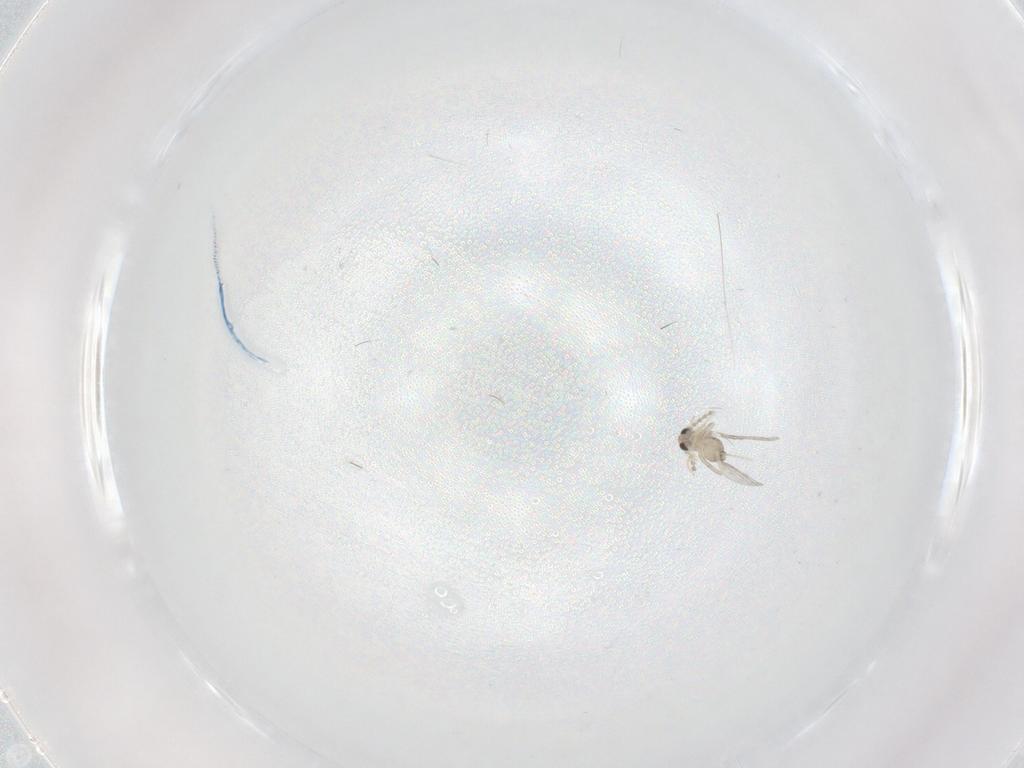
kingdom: Animalia
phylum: Arthropoda
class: Insecta
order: Diptera
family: Cecidomyiidae
